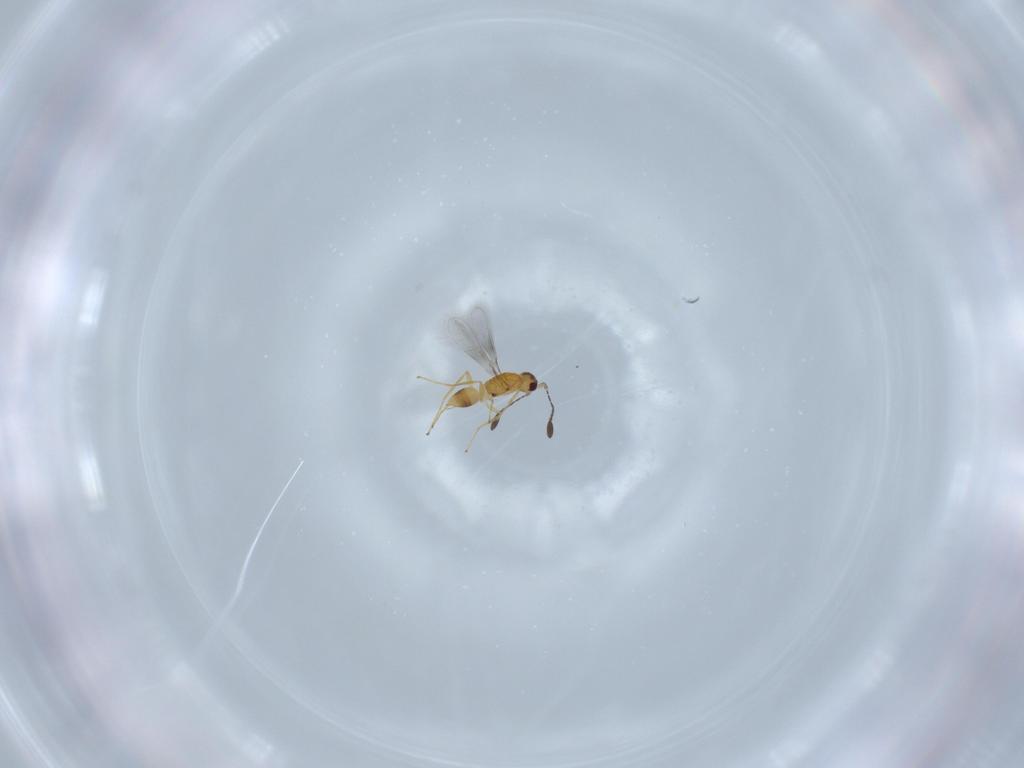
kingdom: Animalia
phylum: Arthropoda
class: Insecta
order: Hymenoptera
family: Mymaridae
